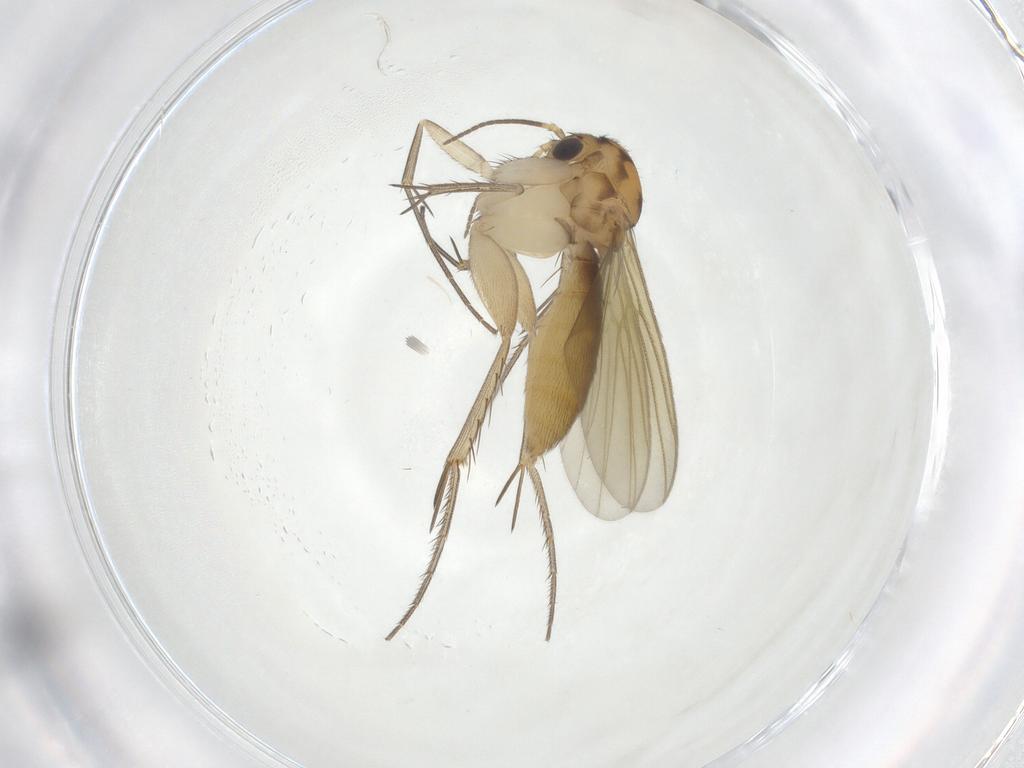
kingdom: Animalia
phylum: Arthropoda
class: Insecta
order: Diptera
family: Mycetophilidae
